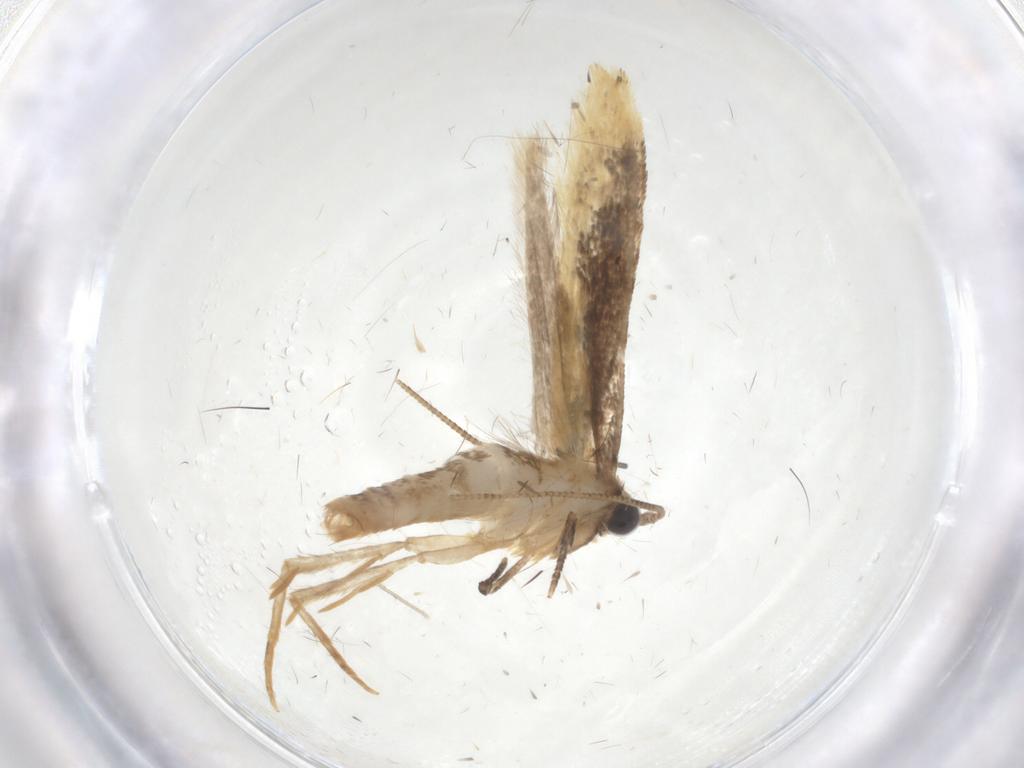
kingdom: Animalia
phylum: Arthropoda
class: Insecta
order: Lepidoptera
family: Gelechiidae
